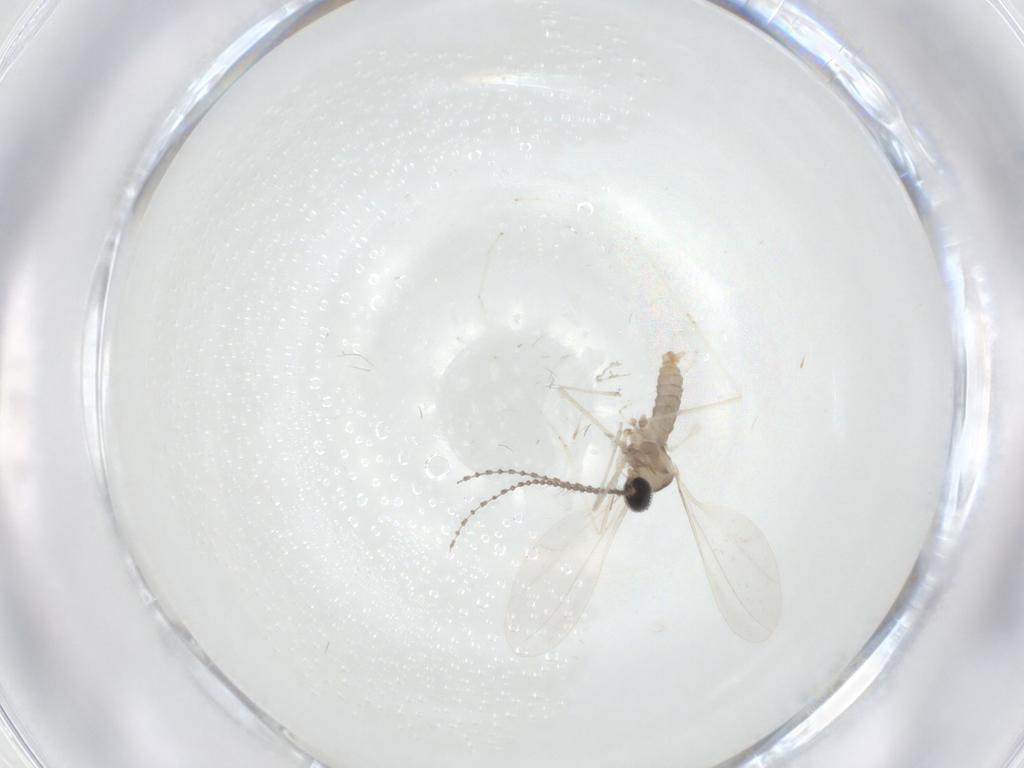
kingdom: Animalia
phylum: Arthropoda
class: Insecta
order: Diptera
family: Cecidomyiidae
